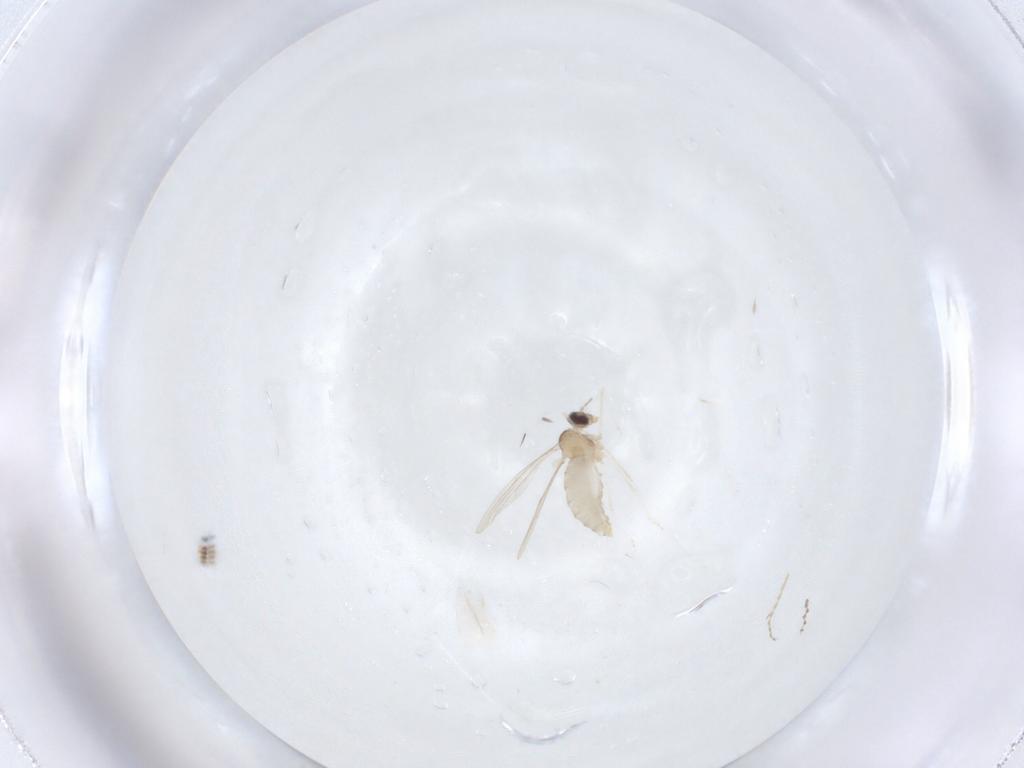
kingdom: Animalia
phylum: Arthropoda
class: Insecta
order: Diptera
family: Cecidomyiidae
